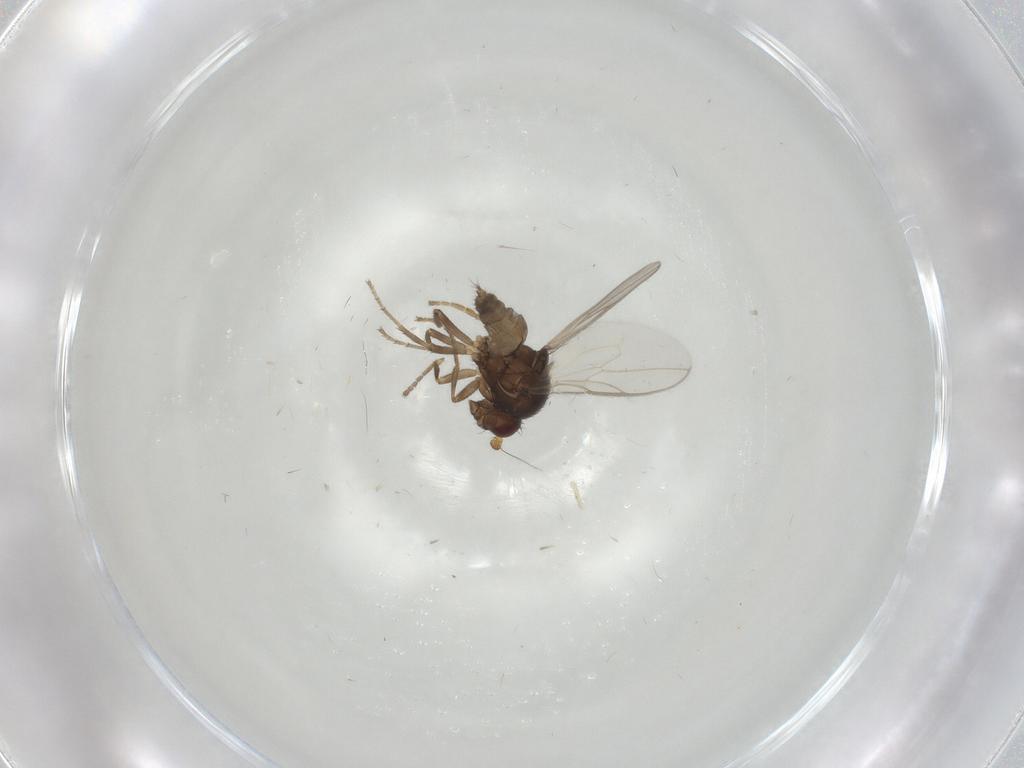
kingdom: Animalia
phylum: Arthropoda
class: Insecta
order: Diptera
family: Sphaeroceridae
